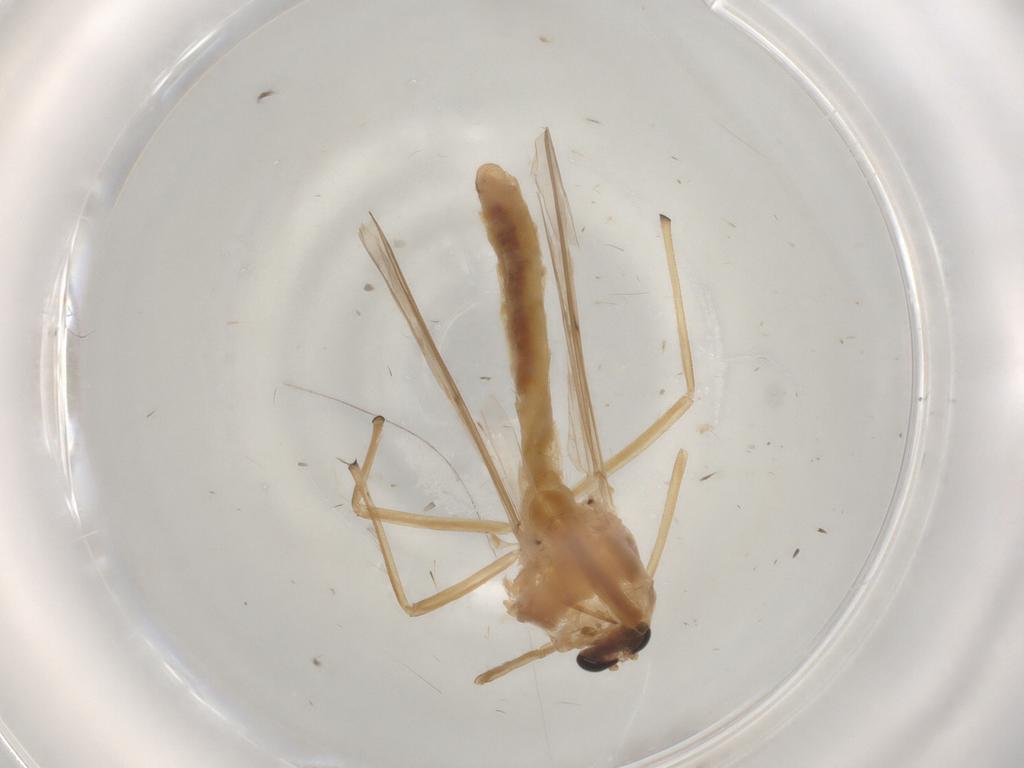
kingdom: Animalia
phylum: Arthropoda
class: Insecta
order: Diptera
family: Chironomidae
